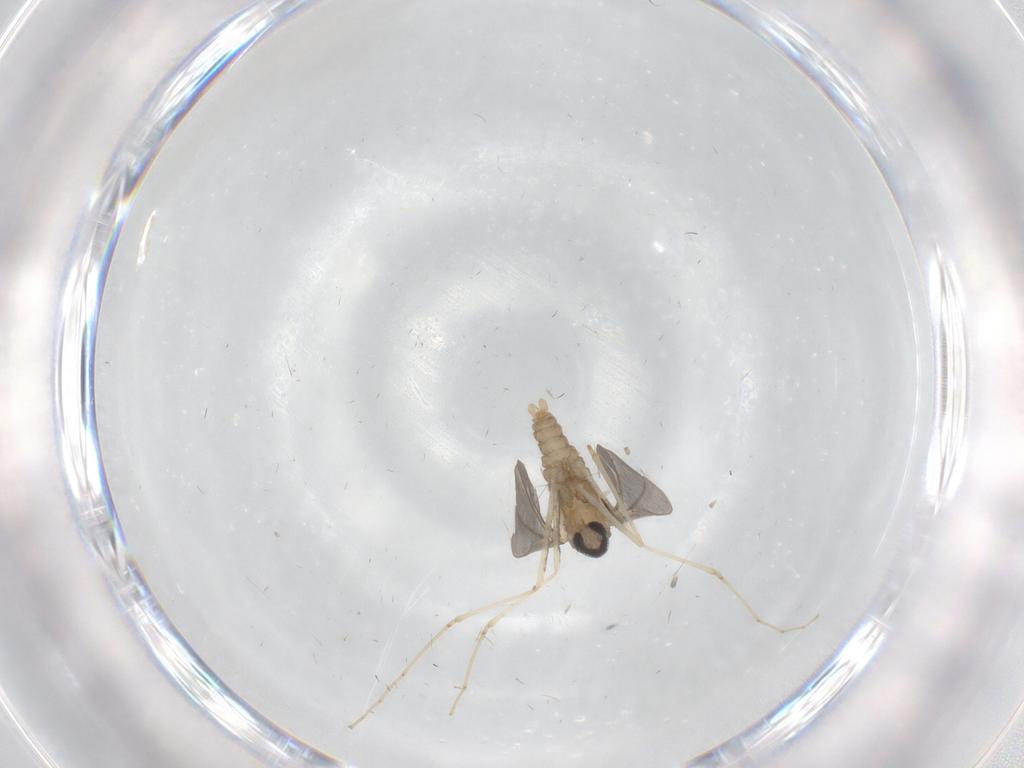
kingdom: Animalia
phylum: Arthropoda
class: Insecta
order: Diptera
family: Cecidomyiidae
